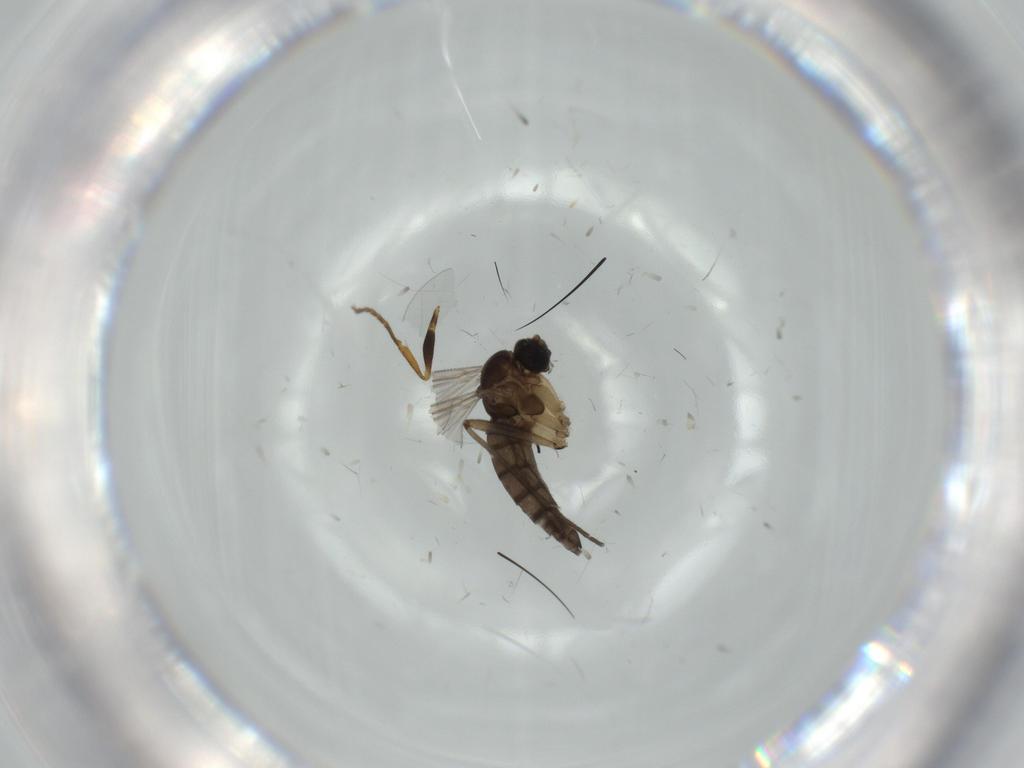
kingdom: Animalia
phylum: Arthropoda
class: Insecta
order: Diptera
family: Cecidomyiidae
